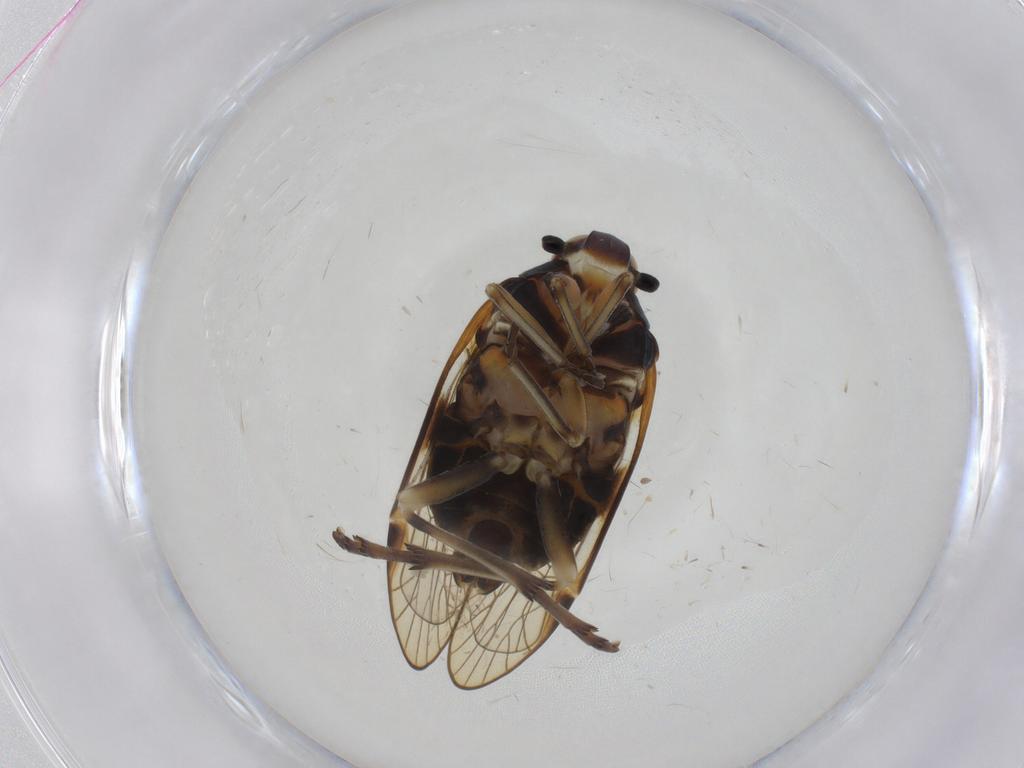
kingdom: Animalia
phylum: Arthropoda
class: Insecta
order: Hemiptera
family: Kinnaridae
